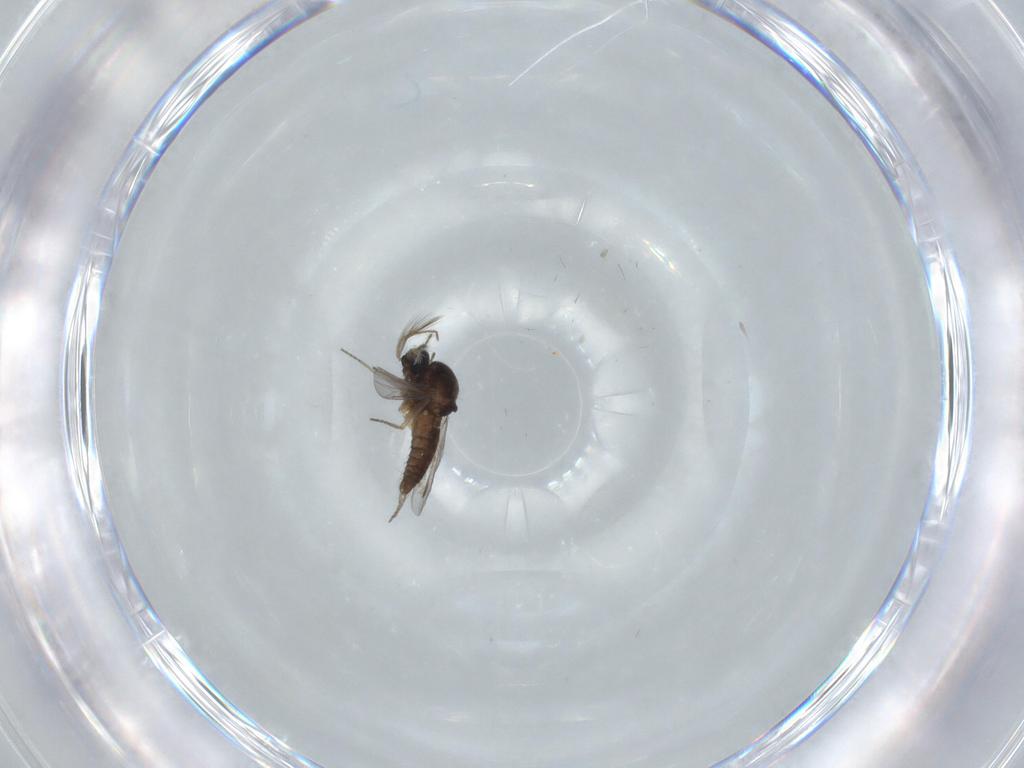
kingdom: Animalia
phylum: Arthropoda
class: Insecta
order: Diptera
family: Ceratopogonidae
